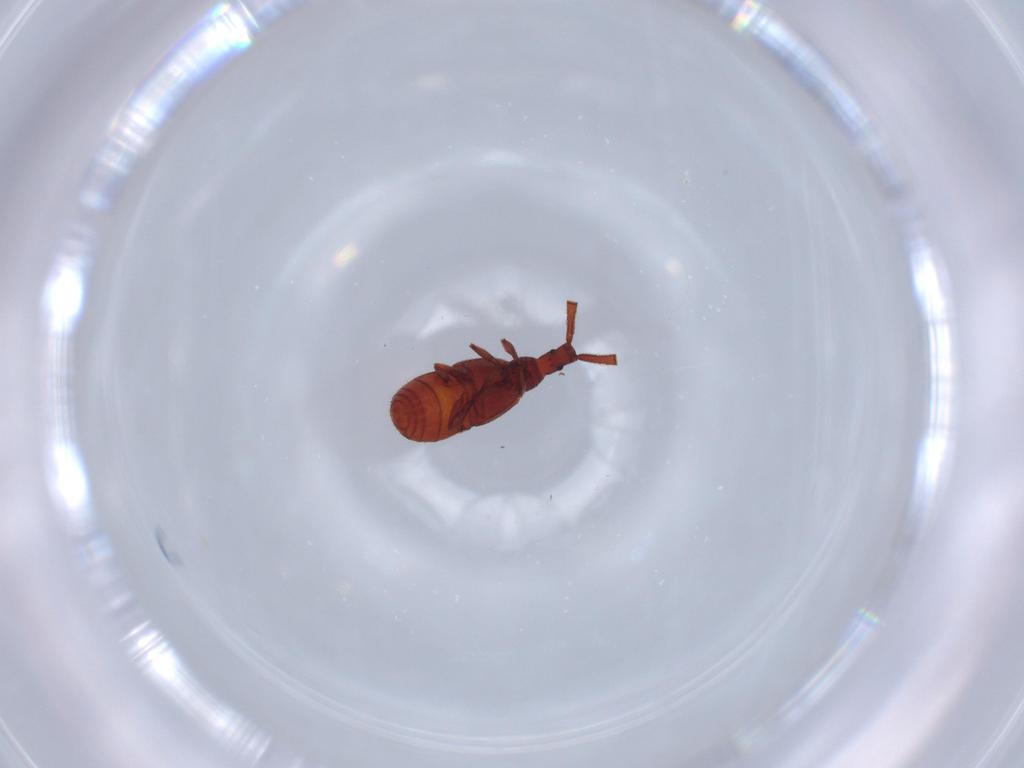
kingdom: Animalia
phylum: Arthropoda
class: Insecta
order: Coleoptera
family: Staphylinidae
